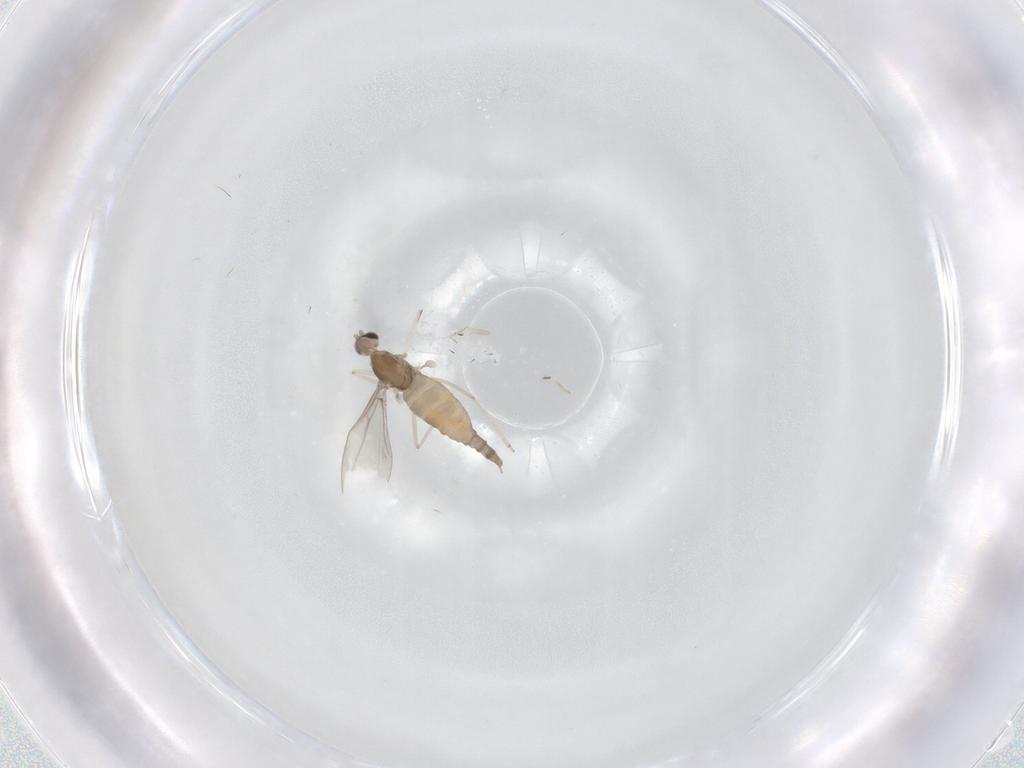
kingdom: Animalia
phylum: Arthropoda
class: Insecta
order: Diptera
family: Cecidomyiidae
